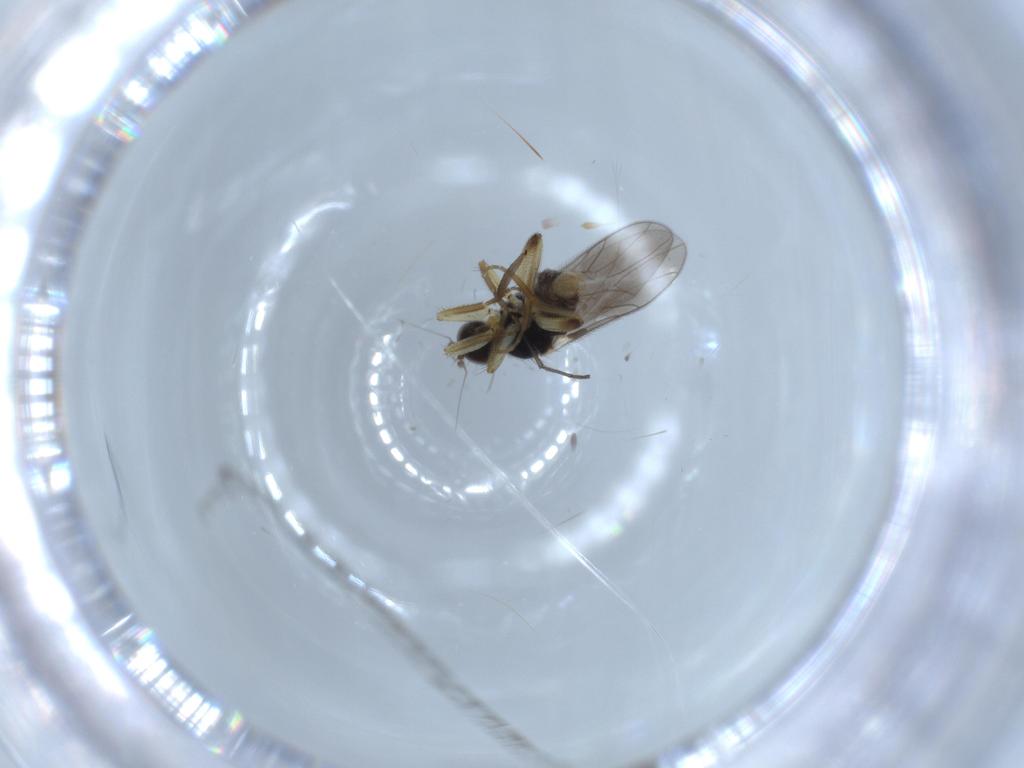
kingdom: Animalia
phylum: Arthropoda
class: Insecta
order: Diptera
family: Hybotidae
